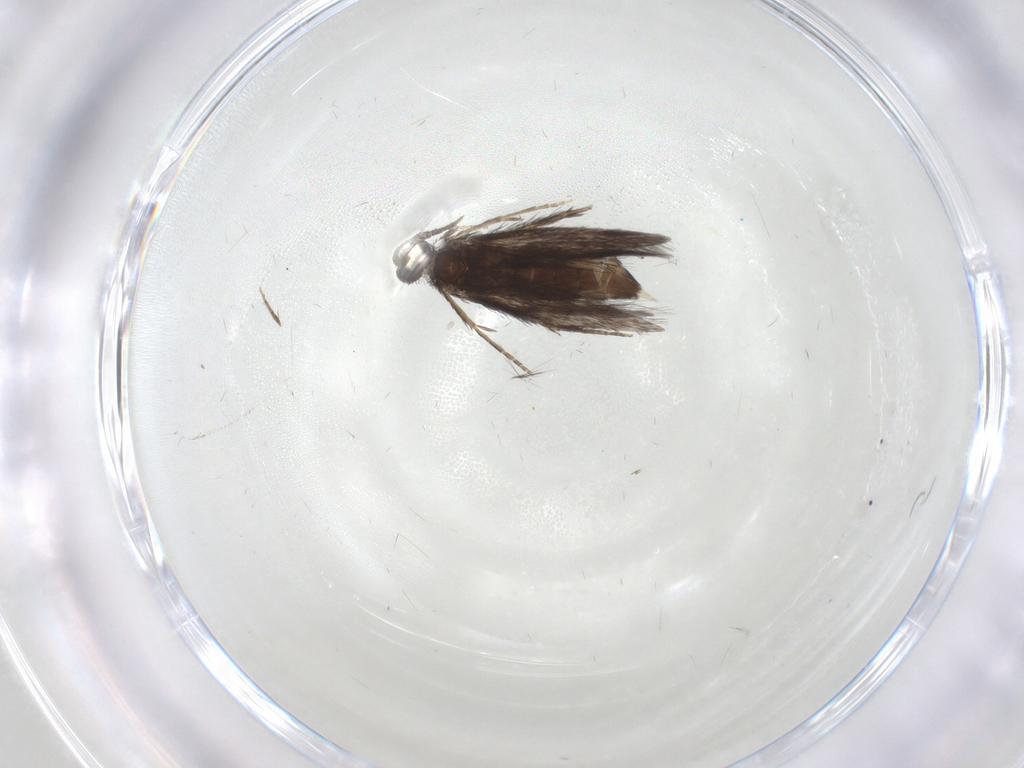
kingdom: Animalia
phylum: Arthropoda
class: Insecta
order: Trichoptera
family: Hydroptilidae
